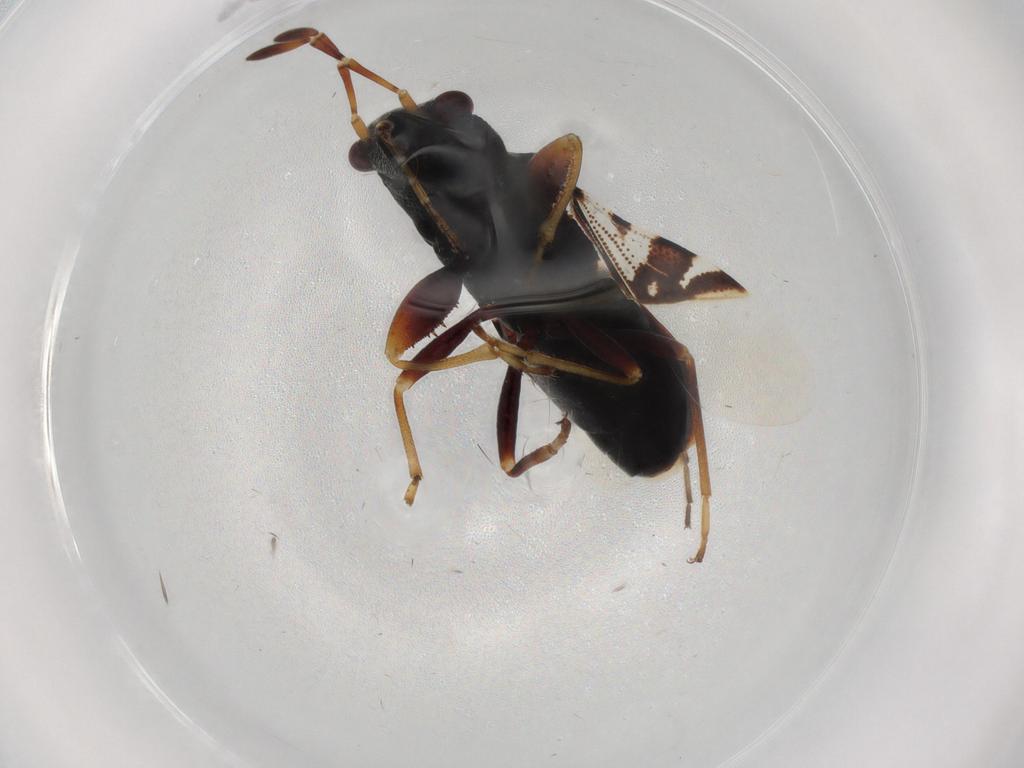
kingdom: Animalia
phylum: Arthropoda
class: Insecta
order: Hemiptera
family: Rhyparochromidae
